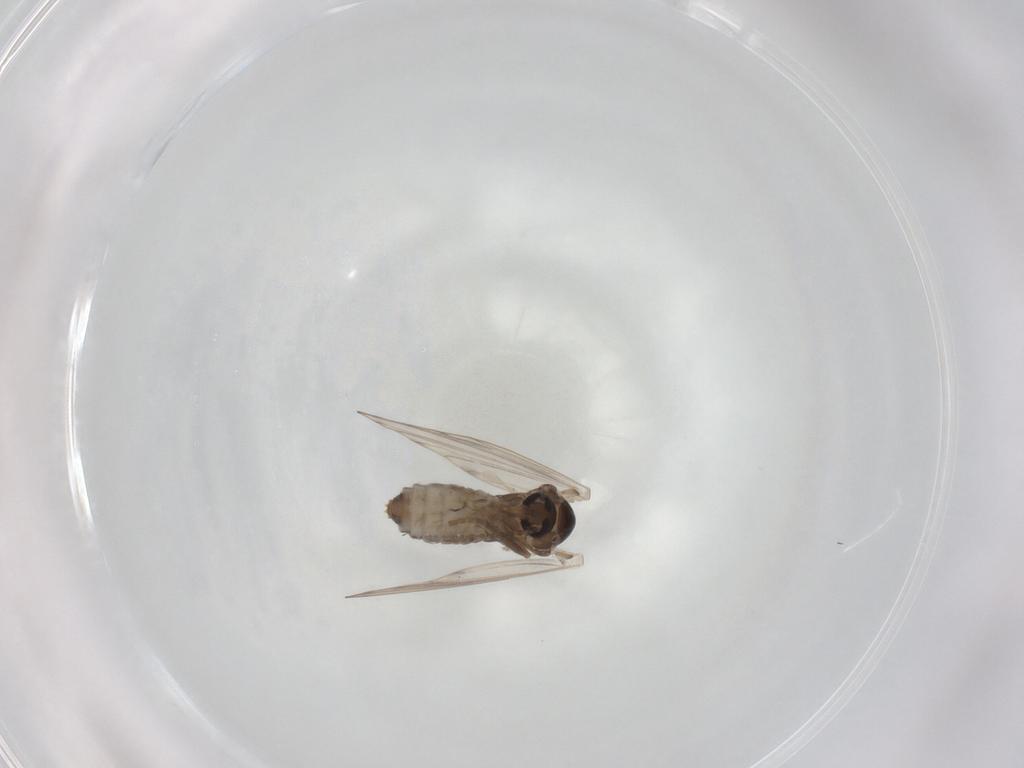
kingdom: Animalia
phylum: Arthropoda
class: Insecta
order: Diptera
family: Psychodidae
